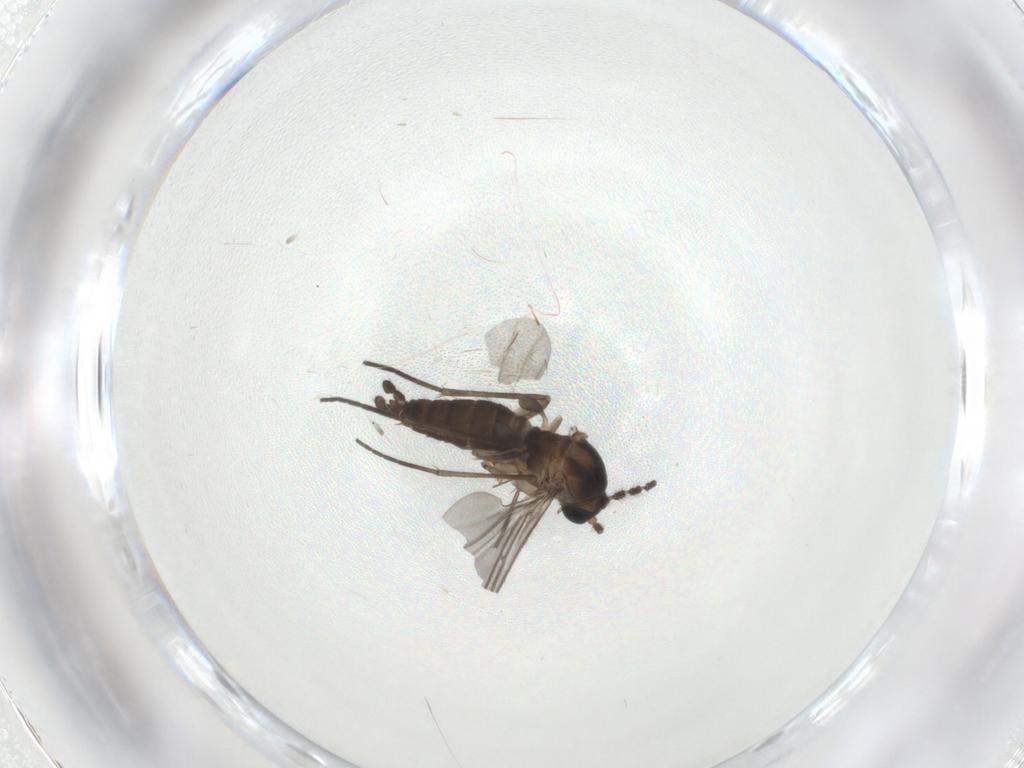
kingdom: Animalia
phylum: Arthropoda
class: Insecta
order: Diptera
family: Sciaridae
